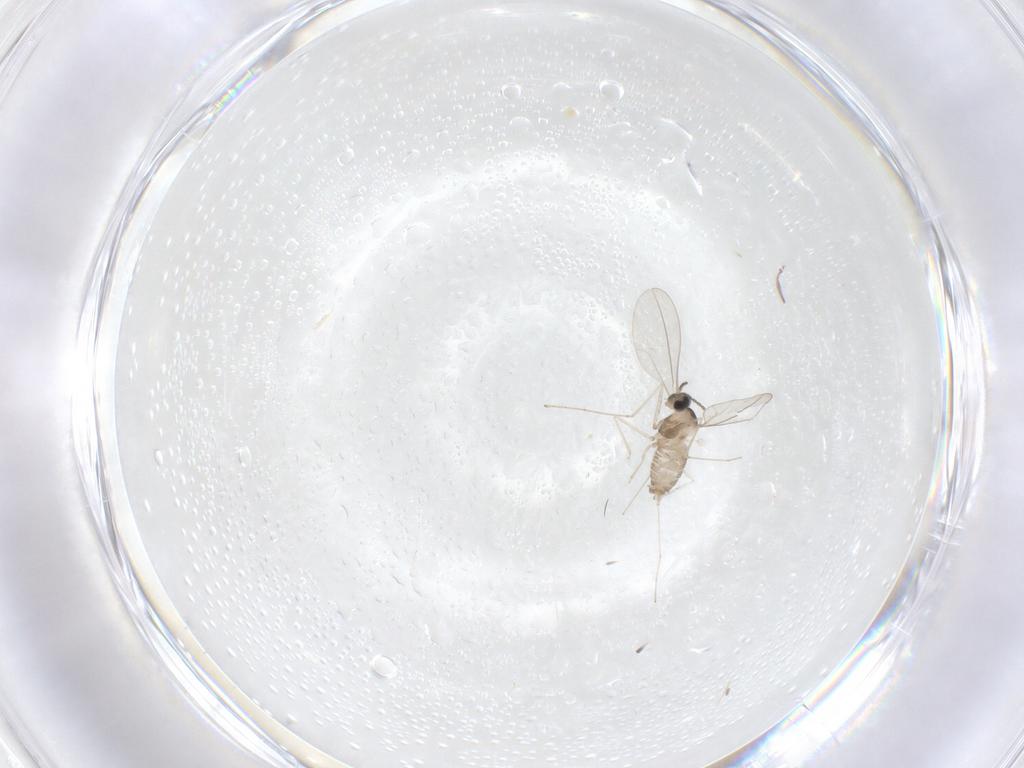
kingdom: Animalia
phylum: Arthropoda
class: Insecta
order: Diptera
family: Cecidomyiidae
